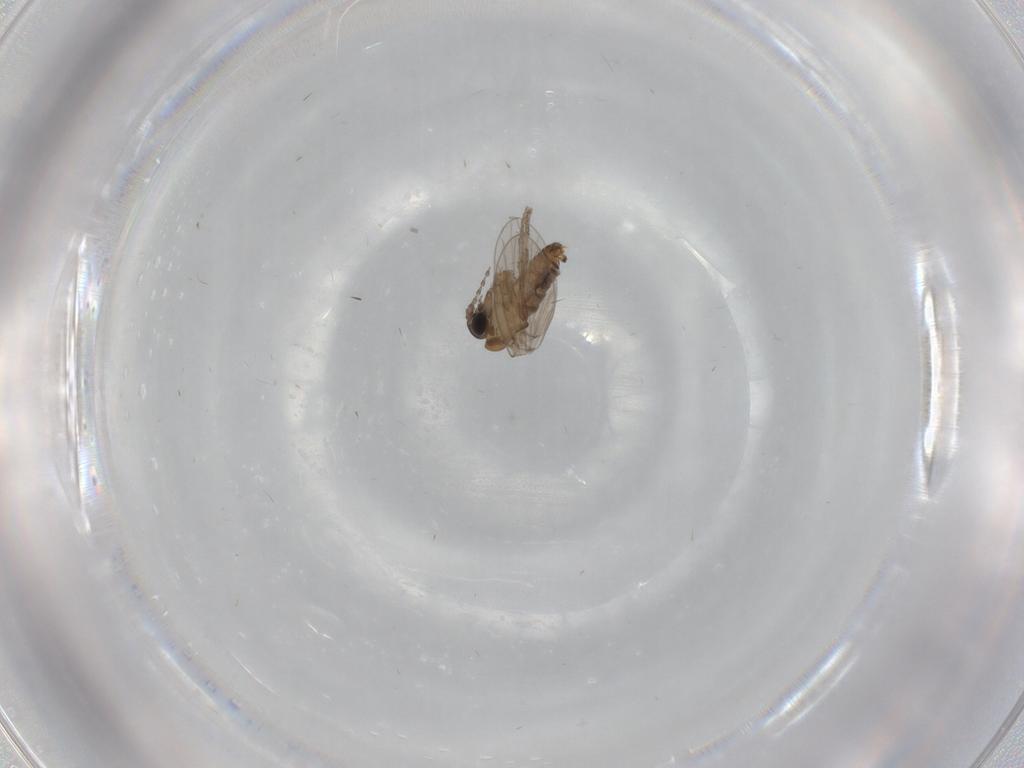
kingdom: Animalia
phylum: Arthropoda
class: Insecta
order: Diptera
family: Psychodidae
